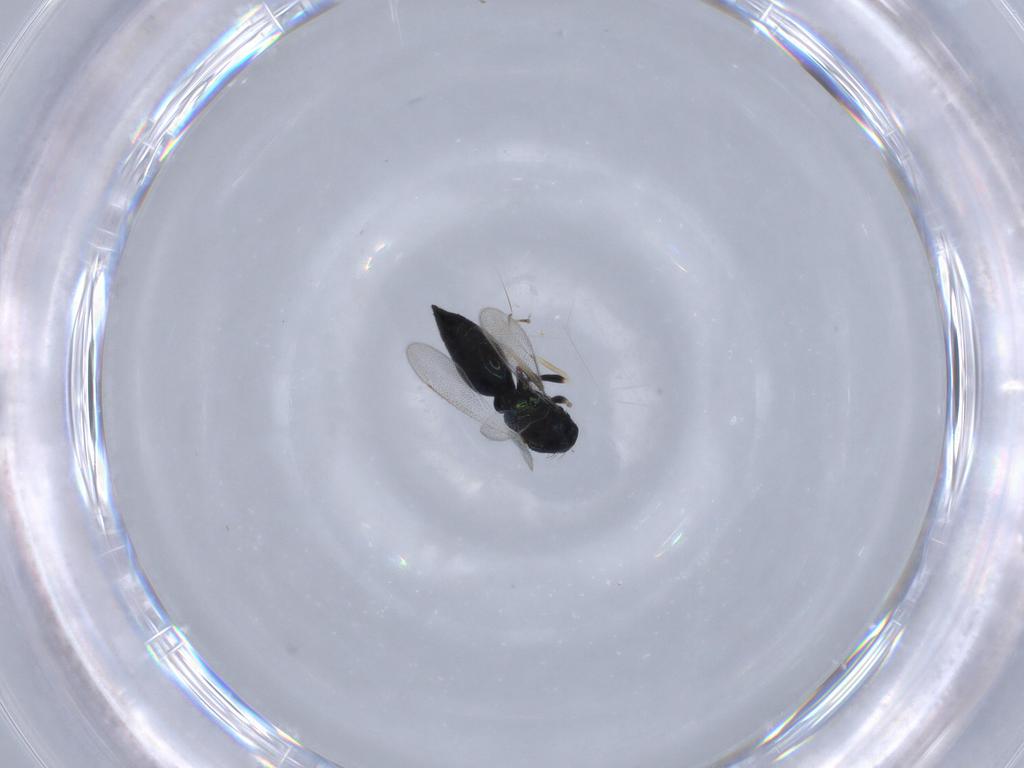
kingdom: Animalia
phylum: Arthropoda
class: Insecta
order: Hymenoptera
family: Eulophidae
